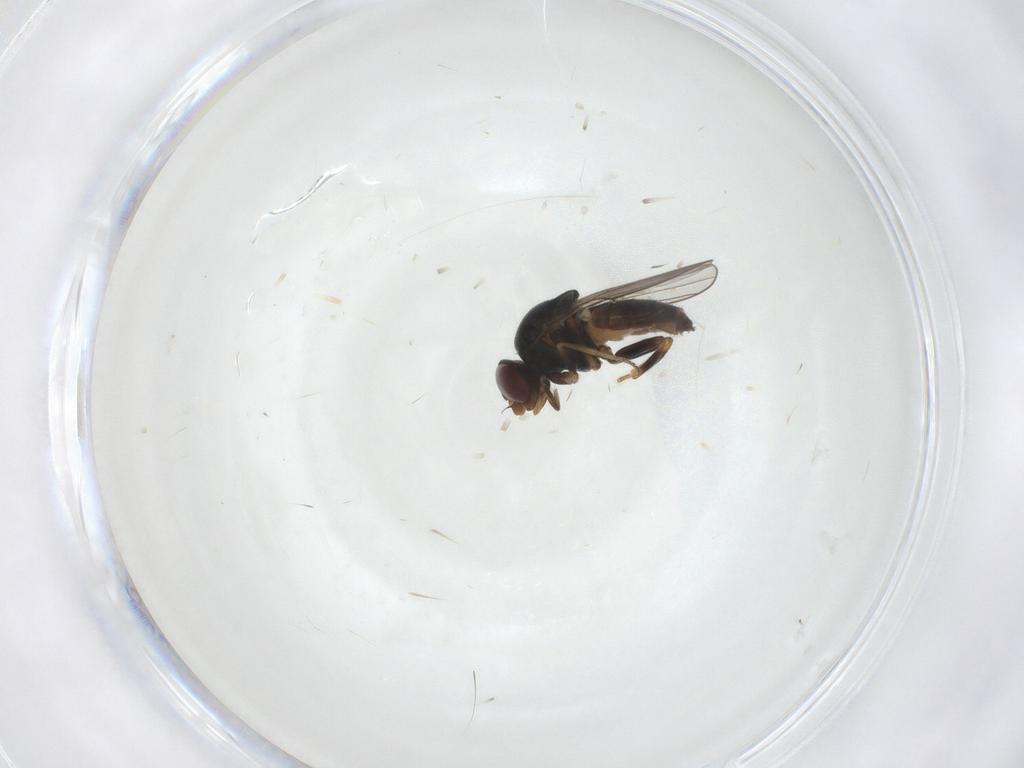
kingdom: Animalia
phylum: Arthropoda
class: Insecta
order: Diptera
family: Chloropidae
